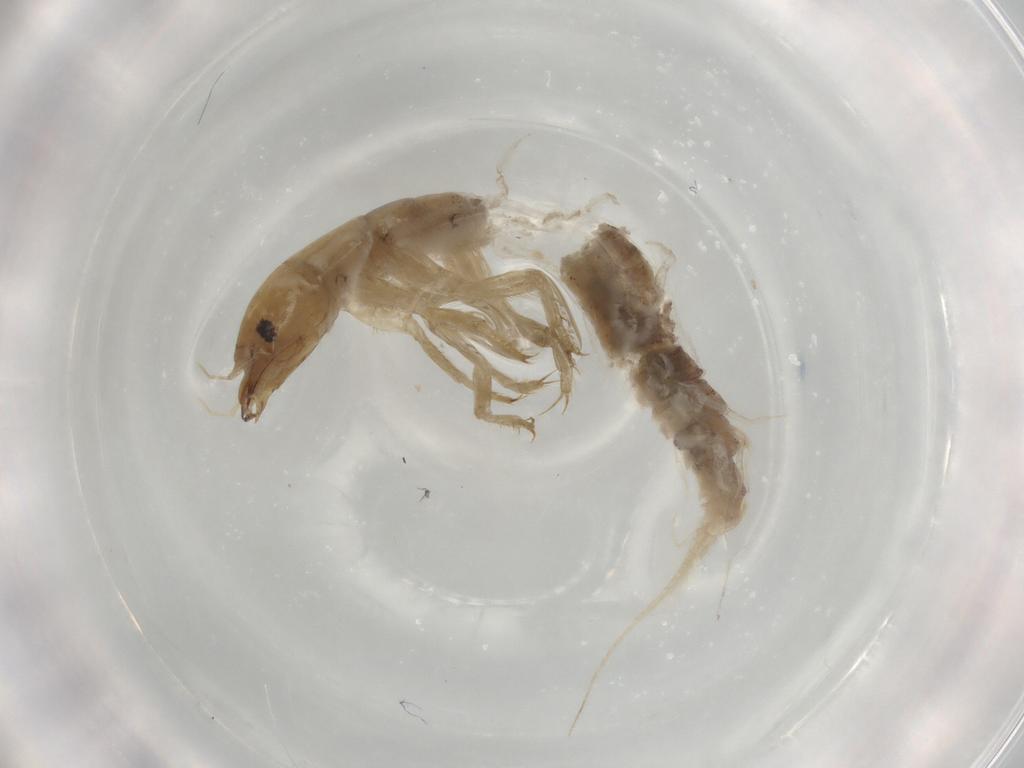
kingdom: Animalia
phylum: Arthropoda
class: Insecta
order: Megaloptera
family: Sialidae
